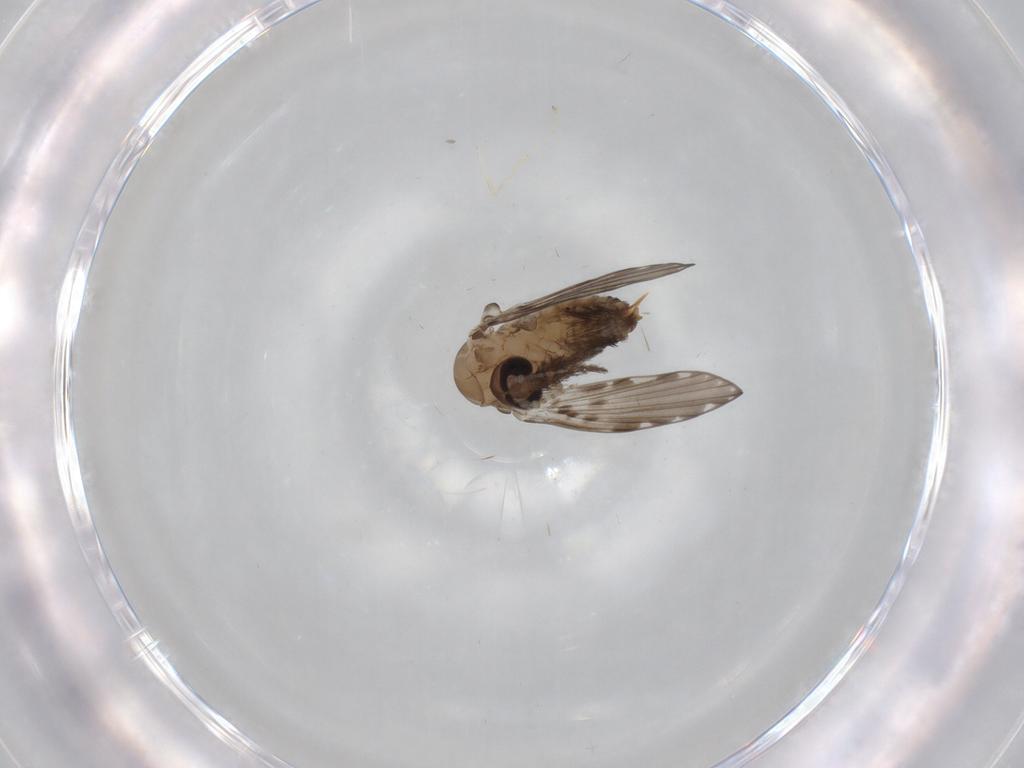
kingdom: Animalia
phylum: Arthropoda
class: Insecta
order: Diptera
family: Psychodidae
